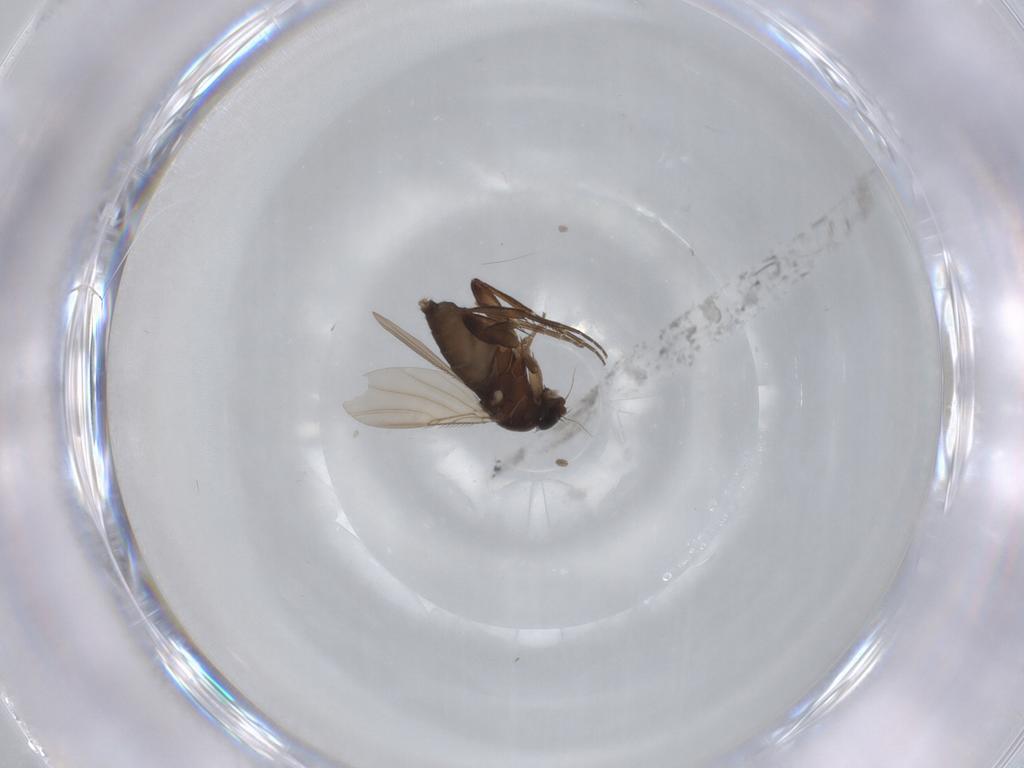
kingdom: Animalia
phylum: Arthropoda
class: Insecta
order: Diptera
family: Phoridae
